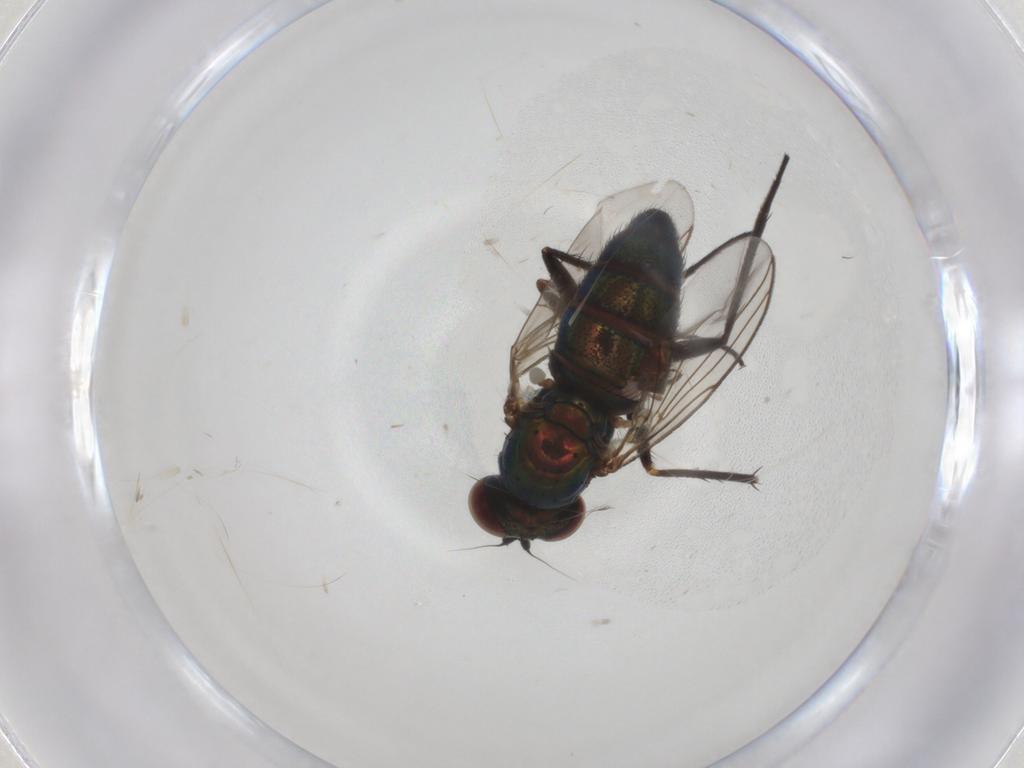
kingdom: Animalia
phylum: Arthropoda
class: Insecta
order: Diptera
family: Dolichopodidae
